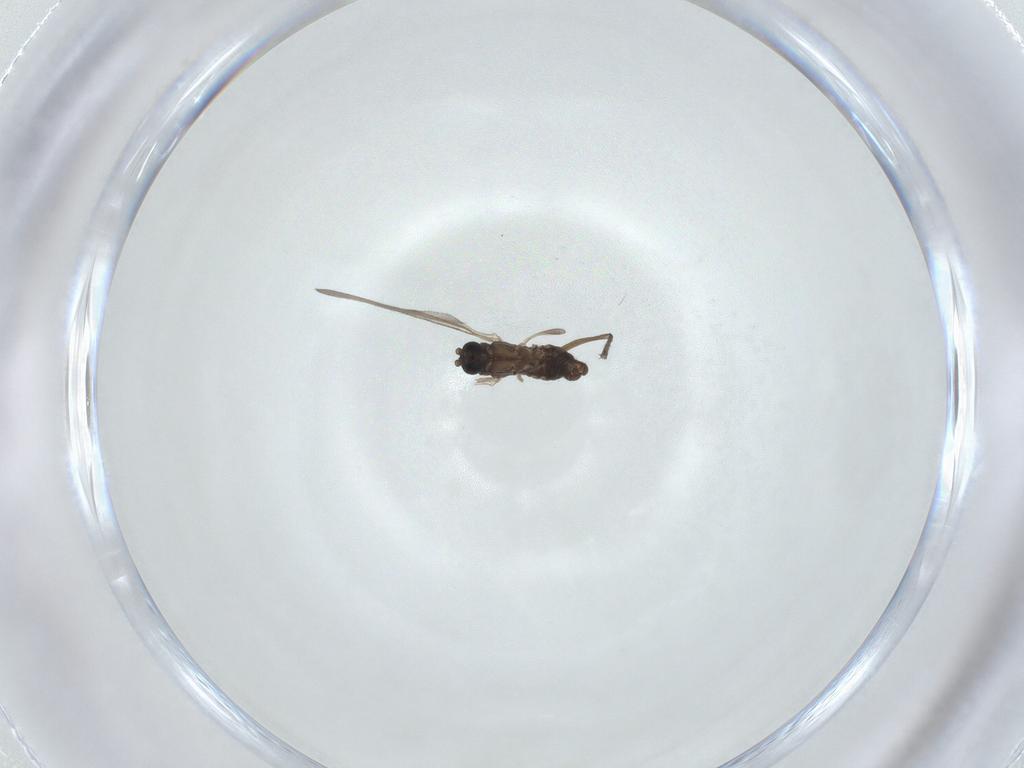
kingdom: Animalia
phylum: Arthropoda
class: Insecta
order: Diptera
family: Sciaridae
